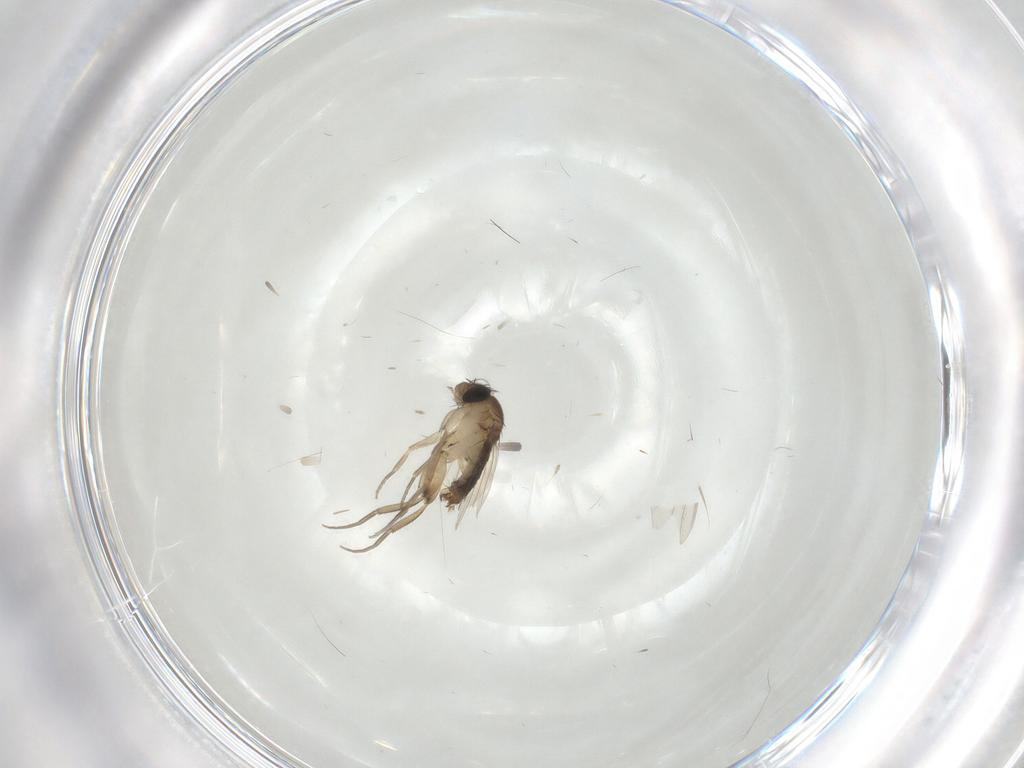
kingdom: Animalia
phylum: Arthropoda
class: Insecta
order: Diptera
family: Phoridae
